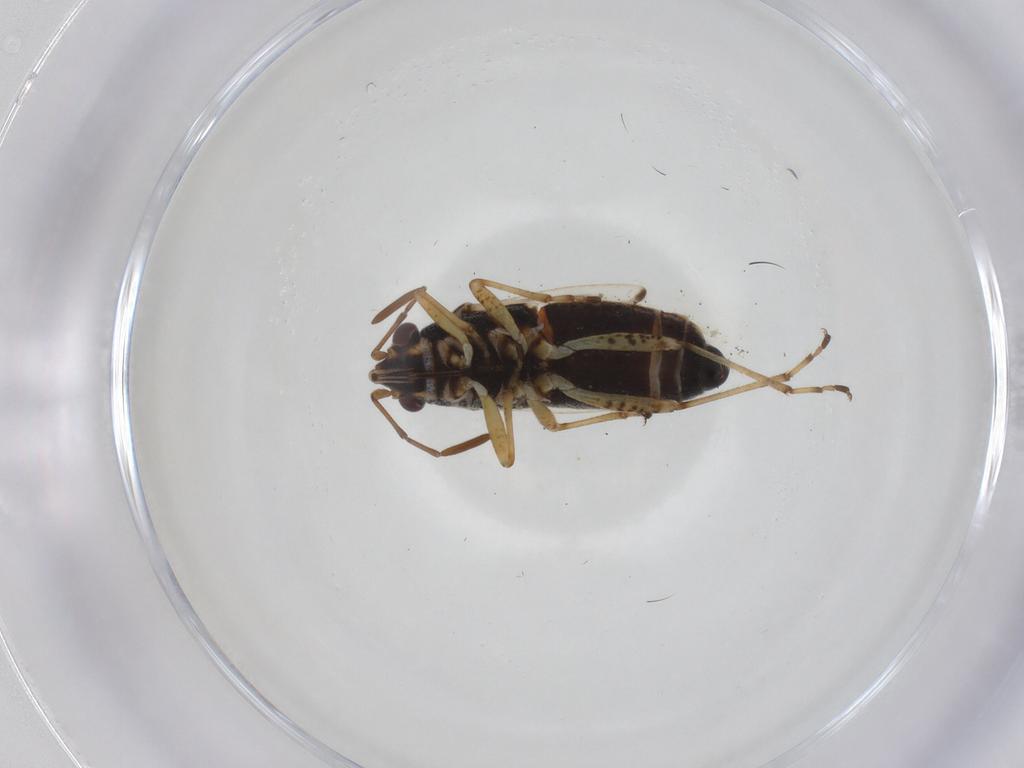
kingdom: Animalia
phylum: Arthropoda
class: Insecta
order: Hemiptera
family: Lygaeidae
